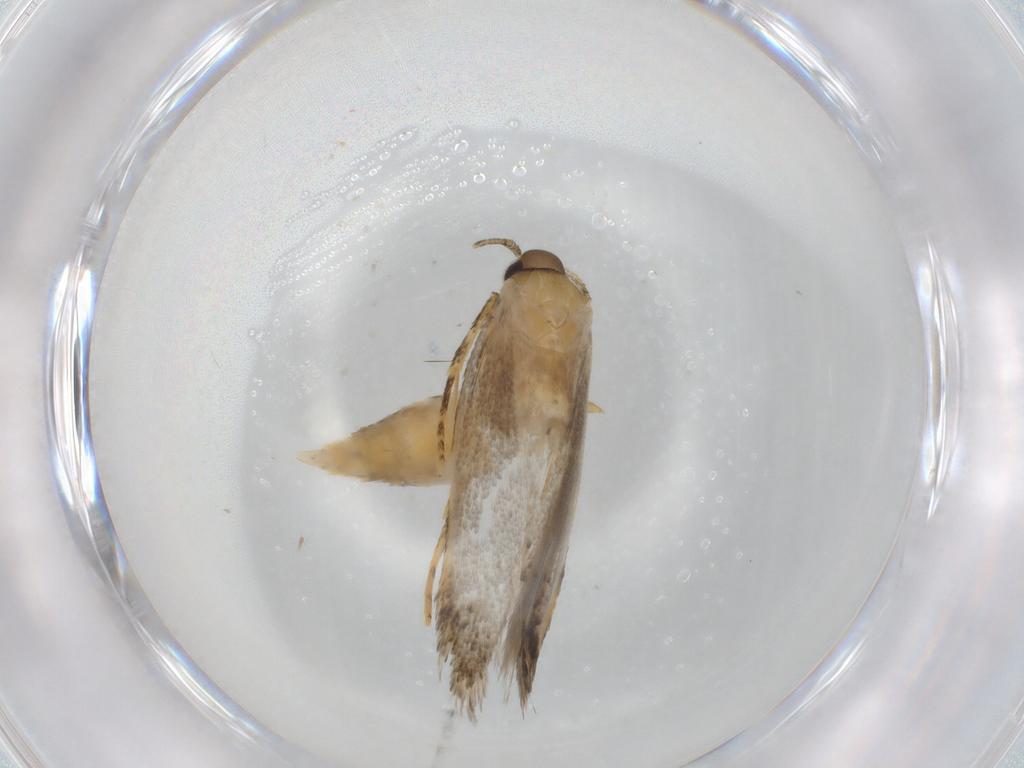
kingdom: Animalia
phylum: Arthropoda
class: Insecta
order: Lepidoptera
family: Autostichidae
